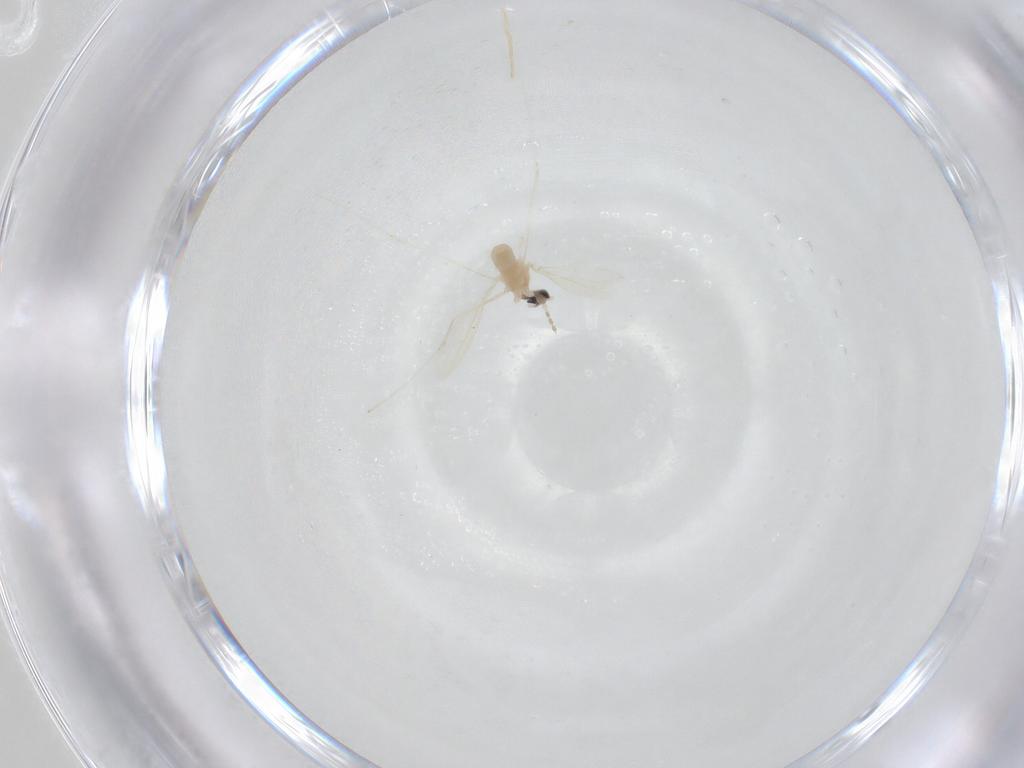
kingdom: Animalia
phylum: Arthropoda
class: Insecta
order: Diptera
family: Cecidomyiidae
